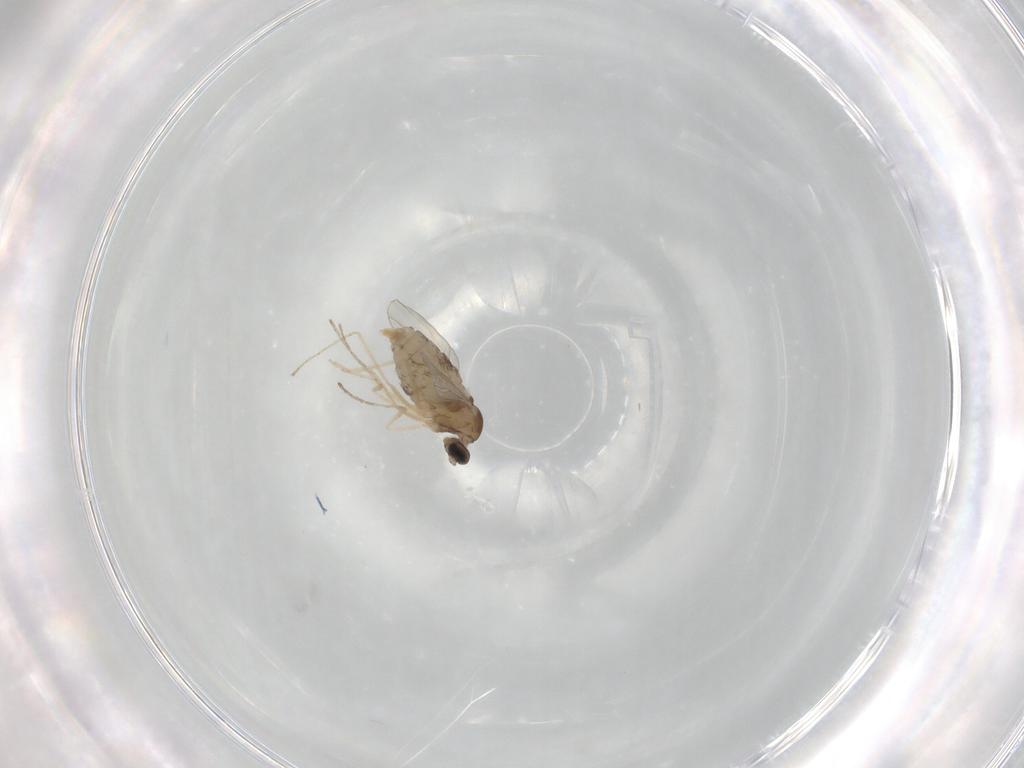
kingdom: Animalia
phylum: Arthropoda
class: Insecta
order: Diptera
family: Cecidomyiidae
